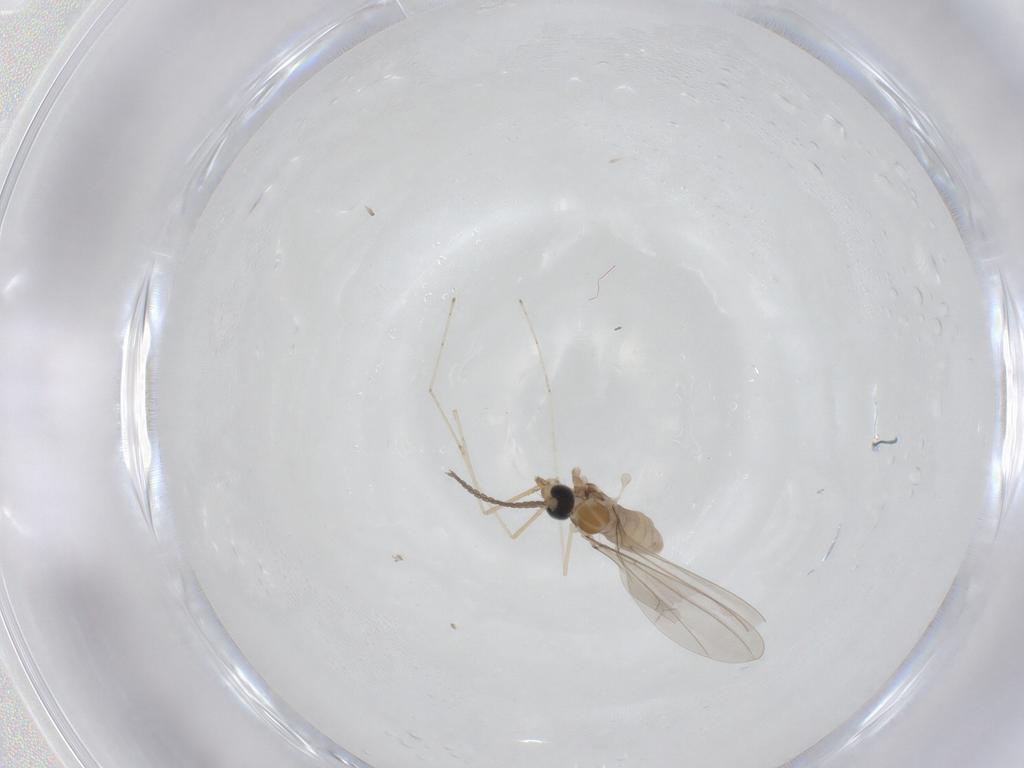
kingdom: Animalia
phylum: Arthropoda
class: Insecta
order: Diptera
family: Cecidomyiidae
